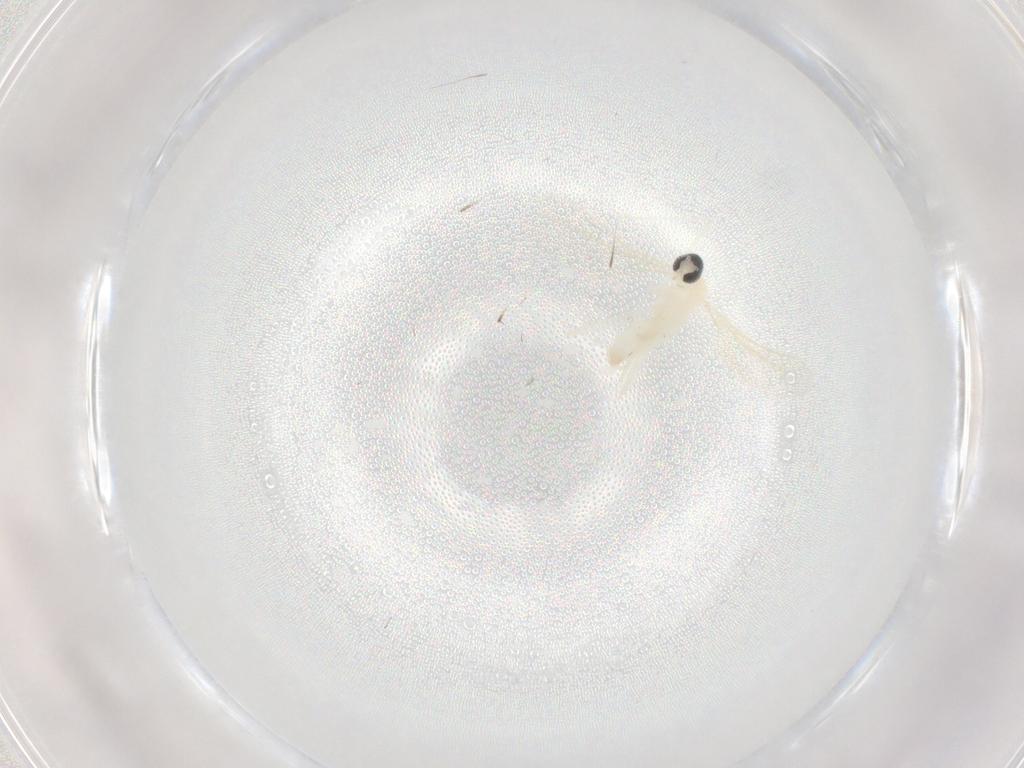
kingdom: Animalia
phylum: Arthropoda
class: Insecta
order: Diptera
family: Cecidomyiidae
